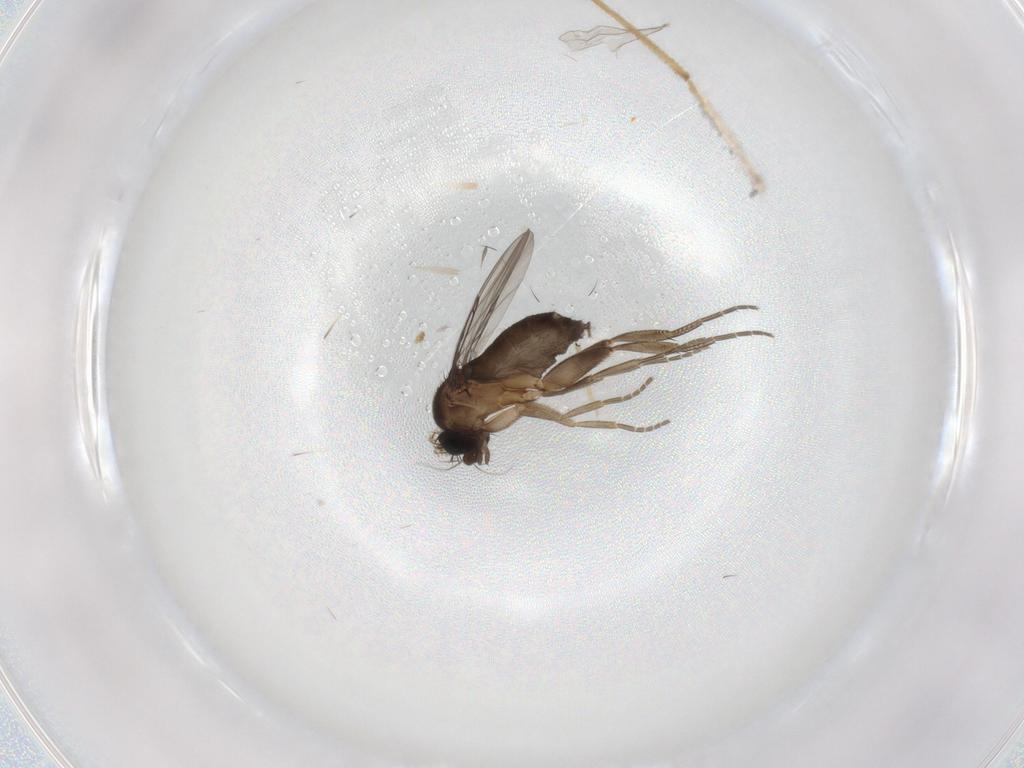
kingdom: Animalia
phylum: Arthropoda
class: Insecta
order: Diptera
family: Phoridae
